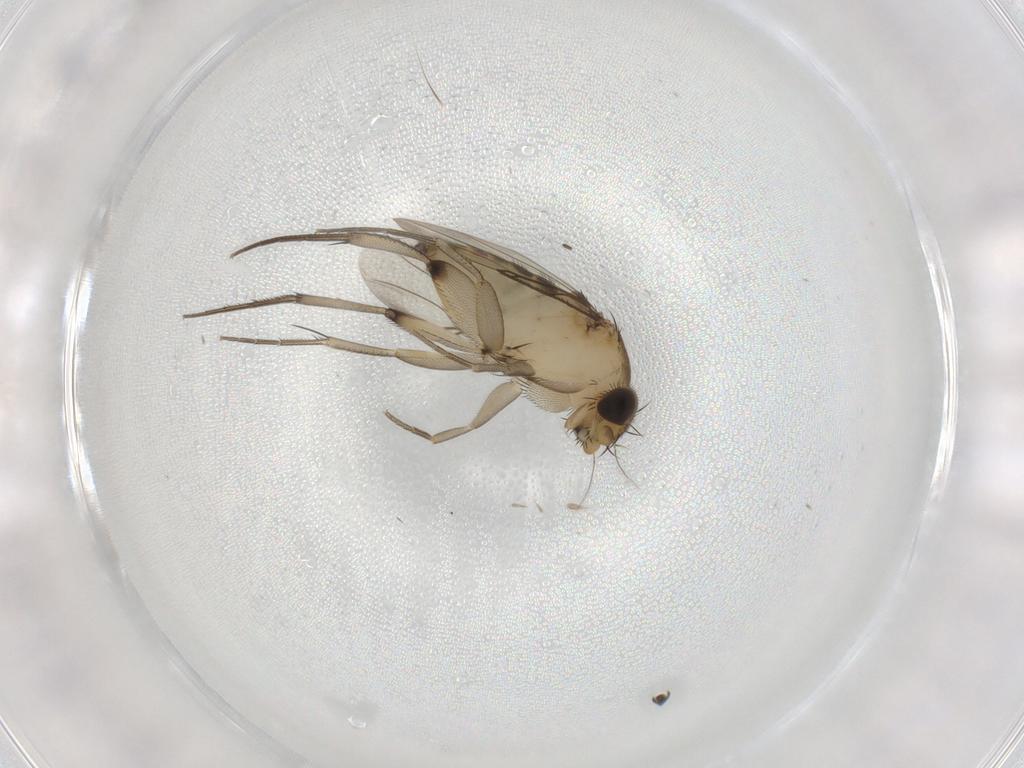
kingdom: Animalia
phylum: Arthropoda
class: Insecta
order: Diptera
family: Phoridae
